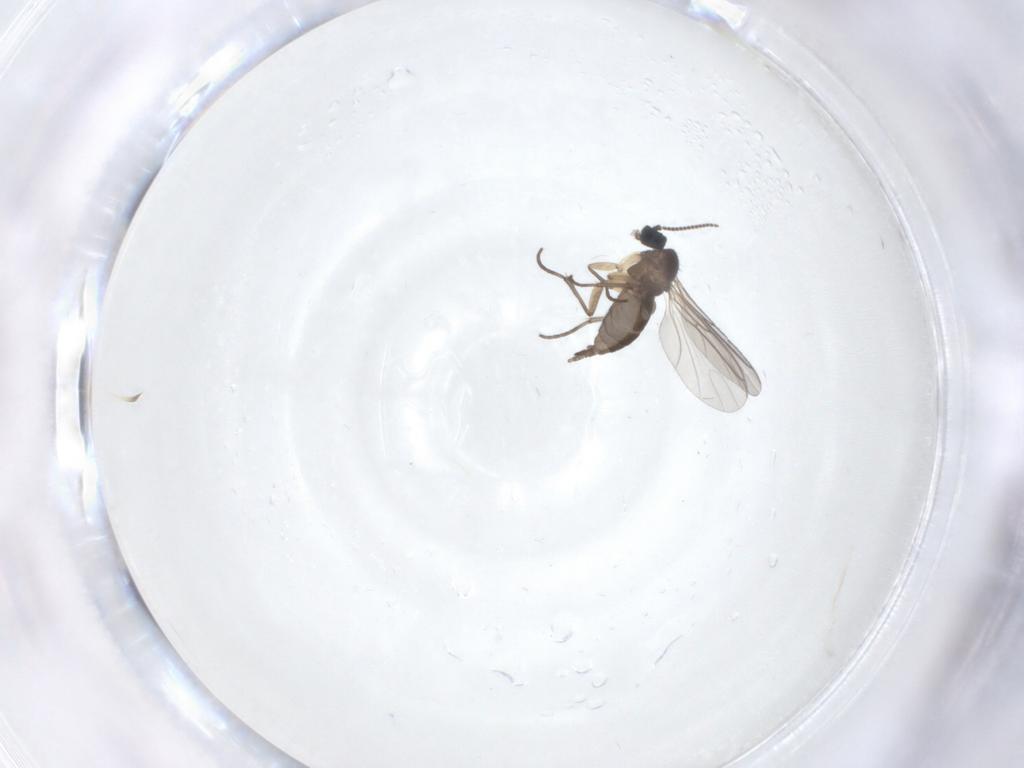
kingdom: Animalia
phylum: Arthropoda
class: Insecta
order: Diptera
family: Sciaridae
